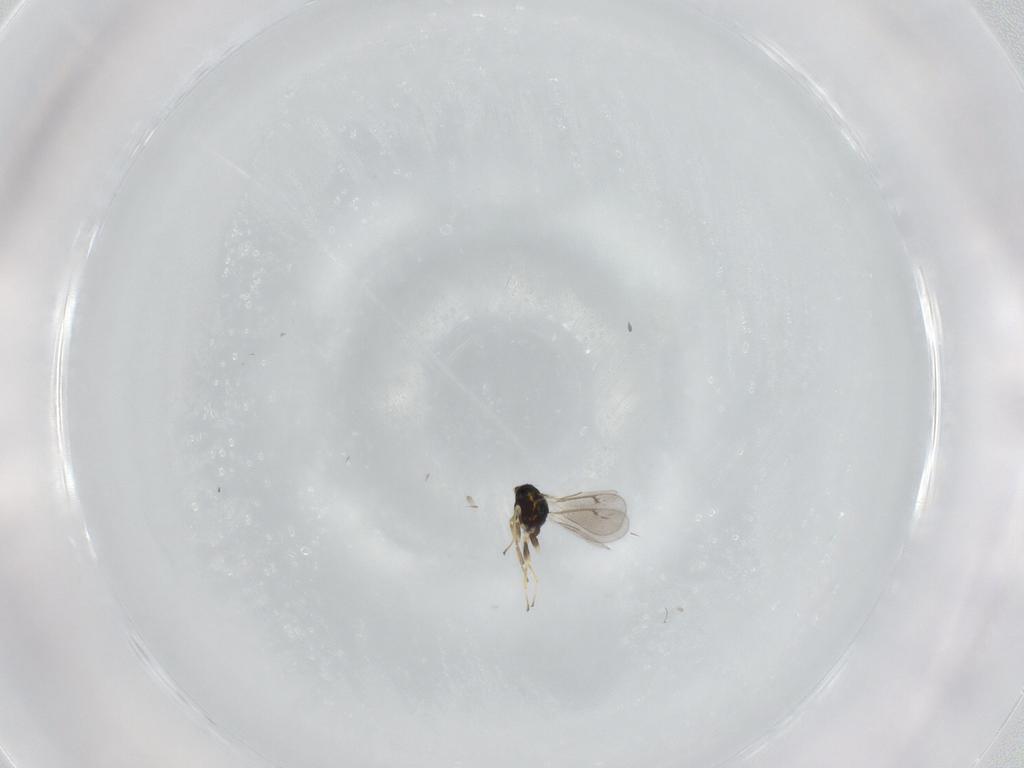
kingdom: Animalia
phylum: Arthropoda
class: Insecta
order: Hymenoptera
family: Eulophidae
